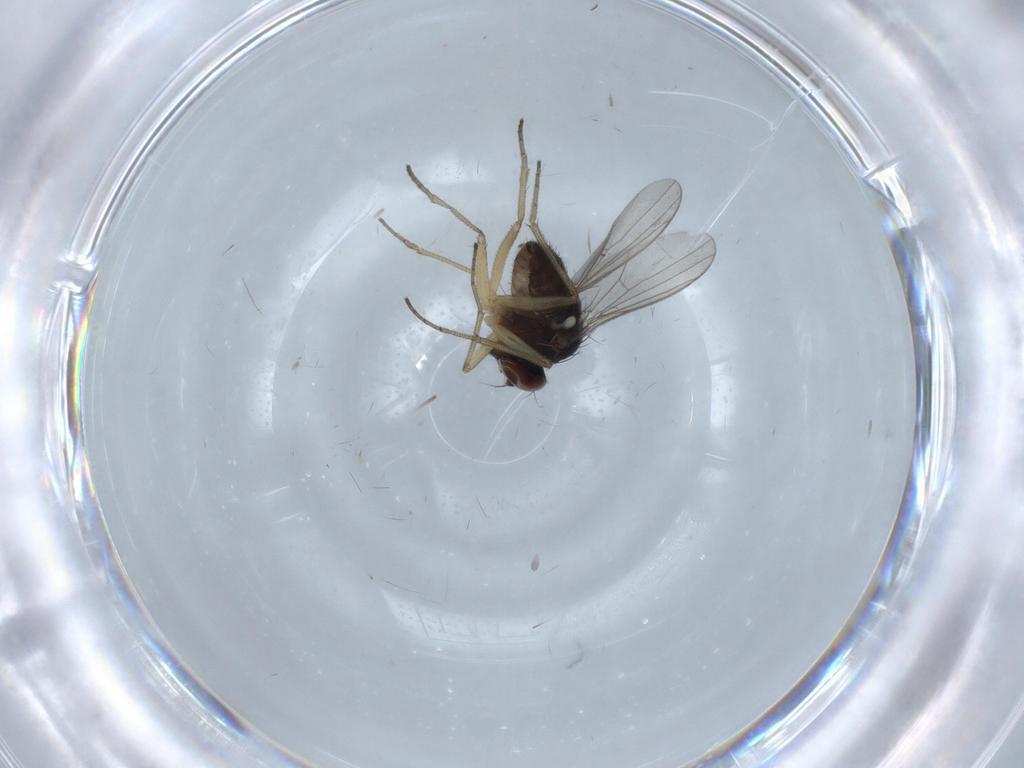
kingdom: Animalia
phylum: Arthropoda
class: Insecta
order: Diptera
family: Dolichopodidae
